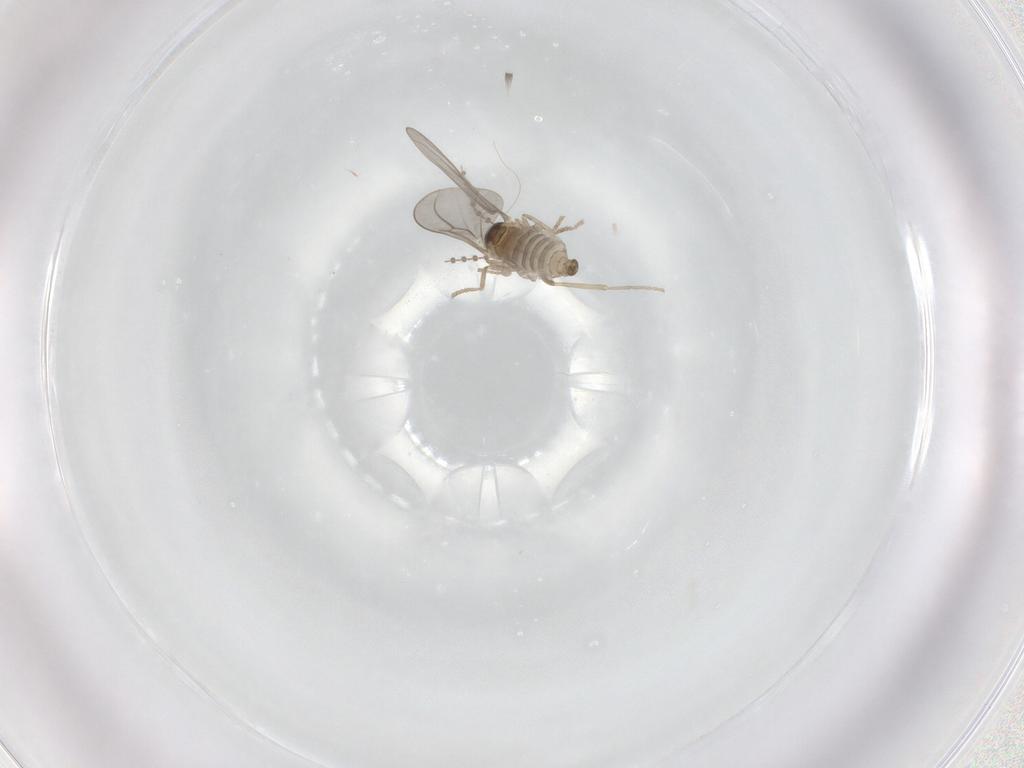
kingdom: Animalia
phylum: Arthropoda
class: Insecta
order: Diptera
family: Cecidomyiidae
